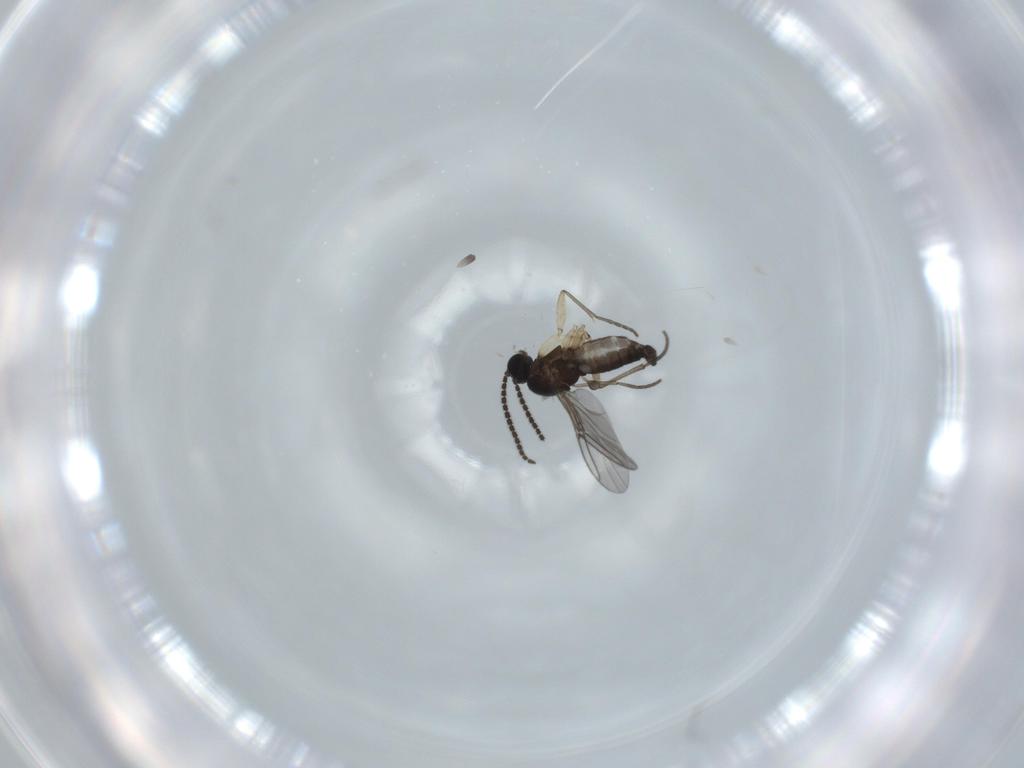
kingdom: Animalia
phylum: Arthropoda
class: Insecta
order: Diptera
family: Sciaridae
